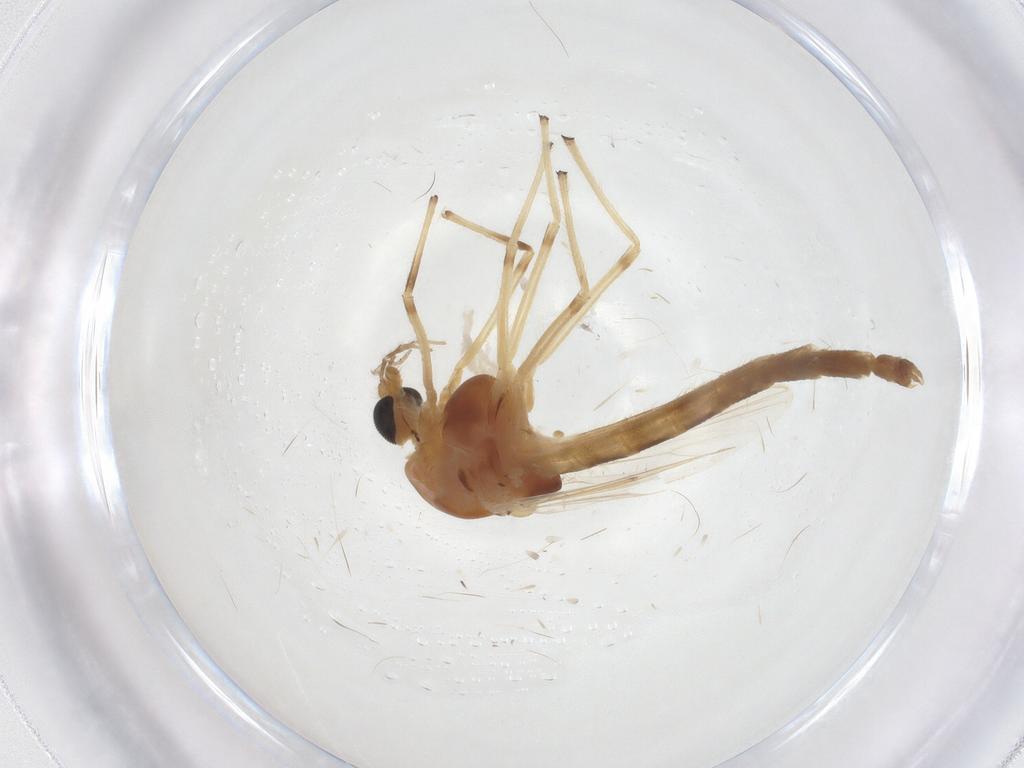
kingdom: Animalia
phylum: Arthropoda
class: Insecta
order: Diptera
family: Chironomidae
